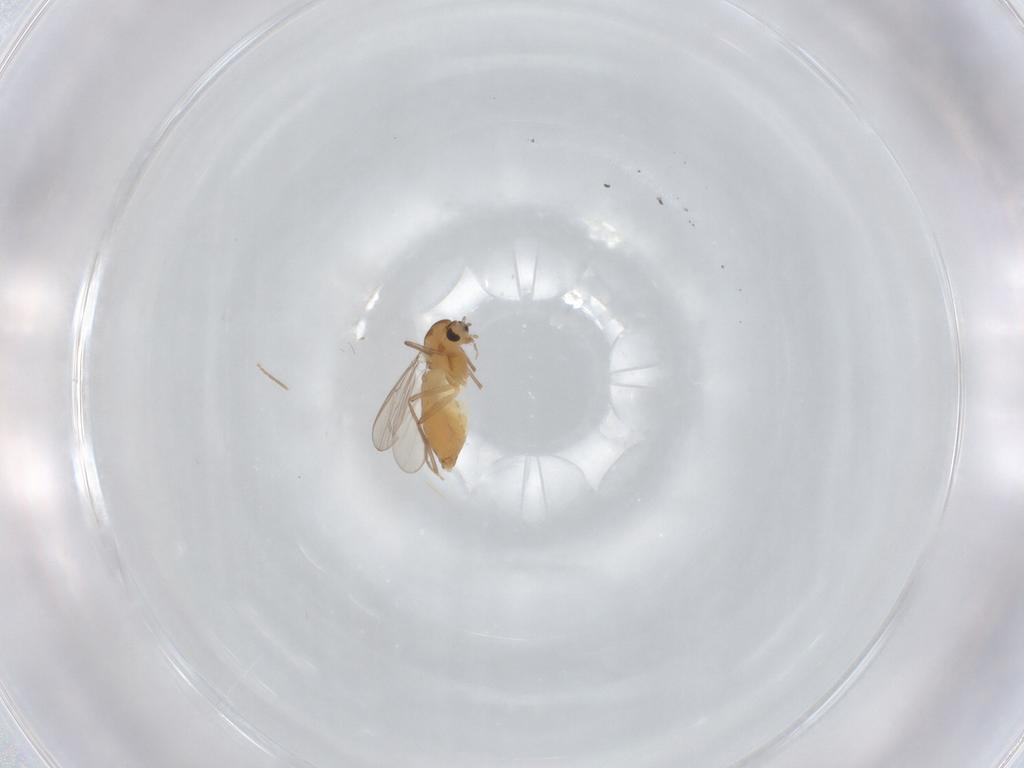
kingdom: Animalia
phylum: Arthropoda
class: Insecta
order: Diptera
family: Chironomidae
